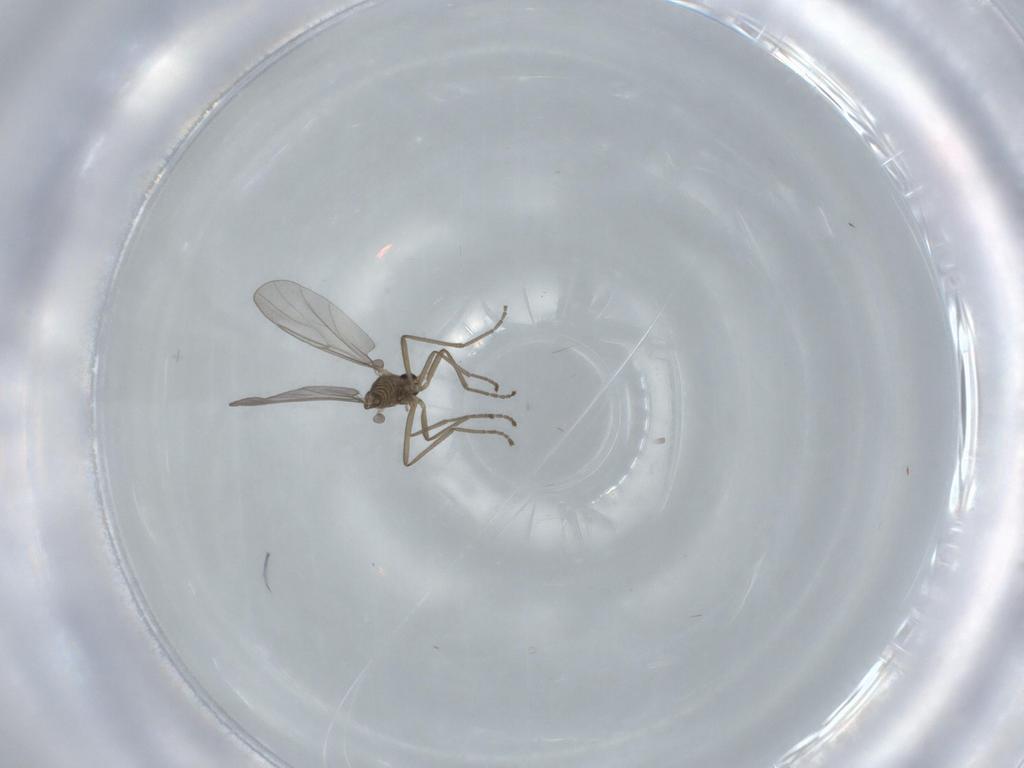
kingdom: Animalia
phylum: Arthropoda
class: Insecta
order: Diptera
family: Cecidomyiidae
